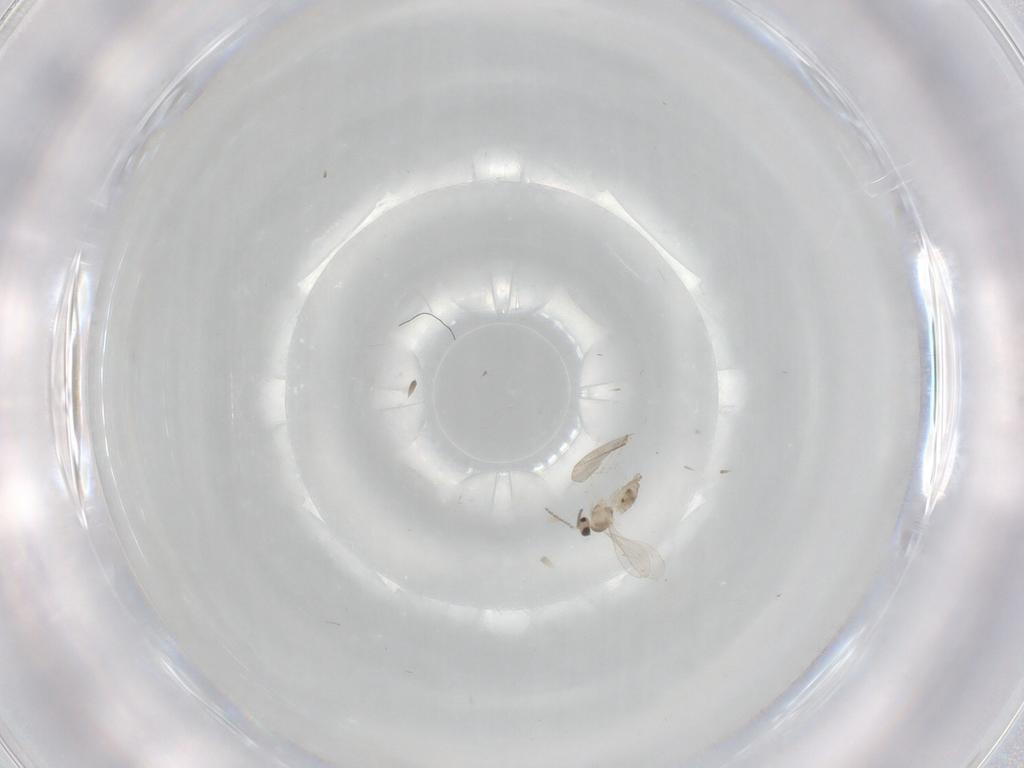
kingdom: Animalia
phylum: Arthropoda
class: Insecta
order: Diptera
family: Cecidomyiidae
